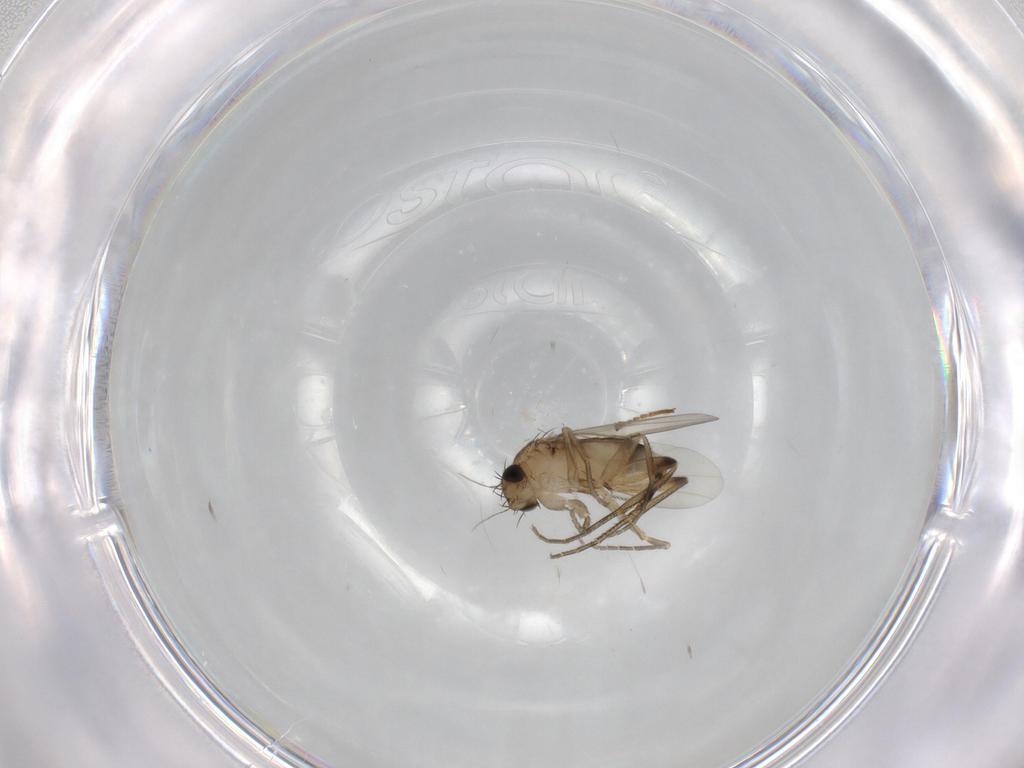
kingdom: Animalia
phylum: Arthropoda
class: Insecta
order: Diptera
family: Phoridae
